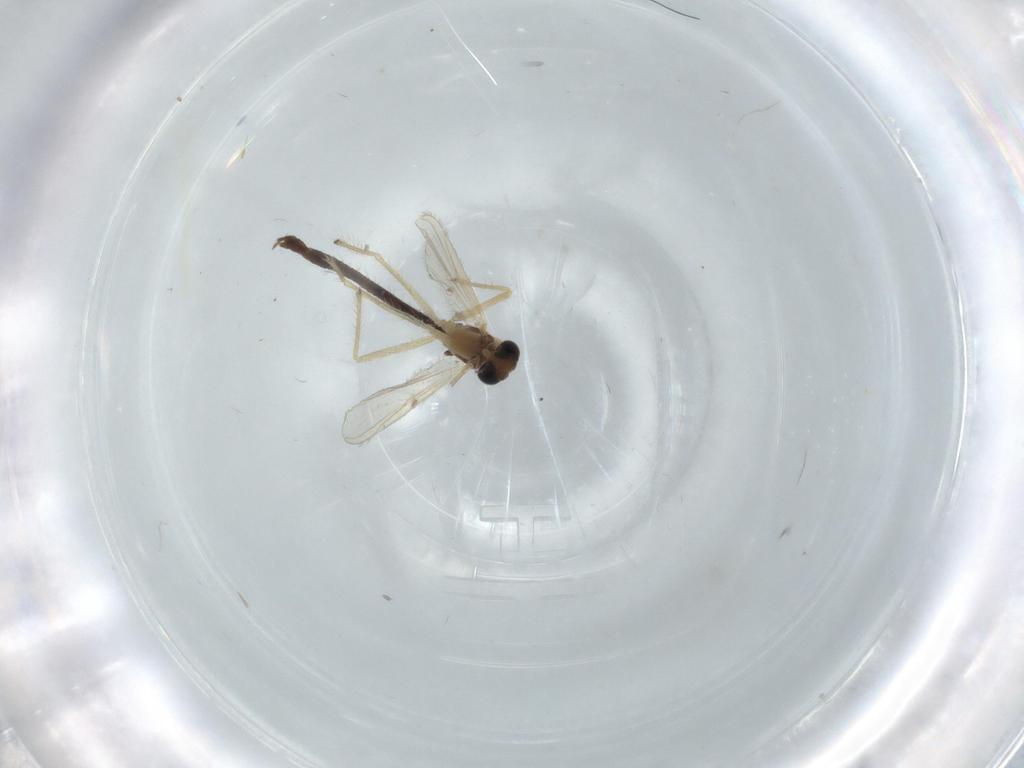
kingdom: Animalia
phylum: Arthropoda
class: Insecta
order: Diptera
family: Chironomidae
